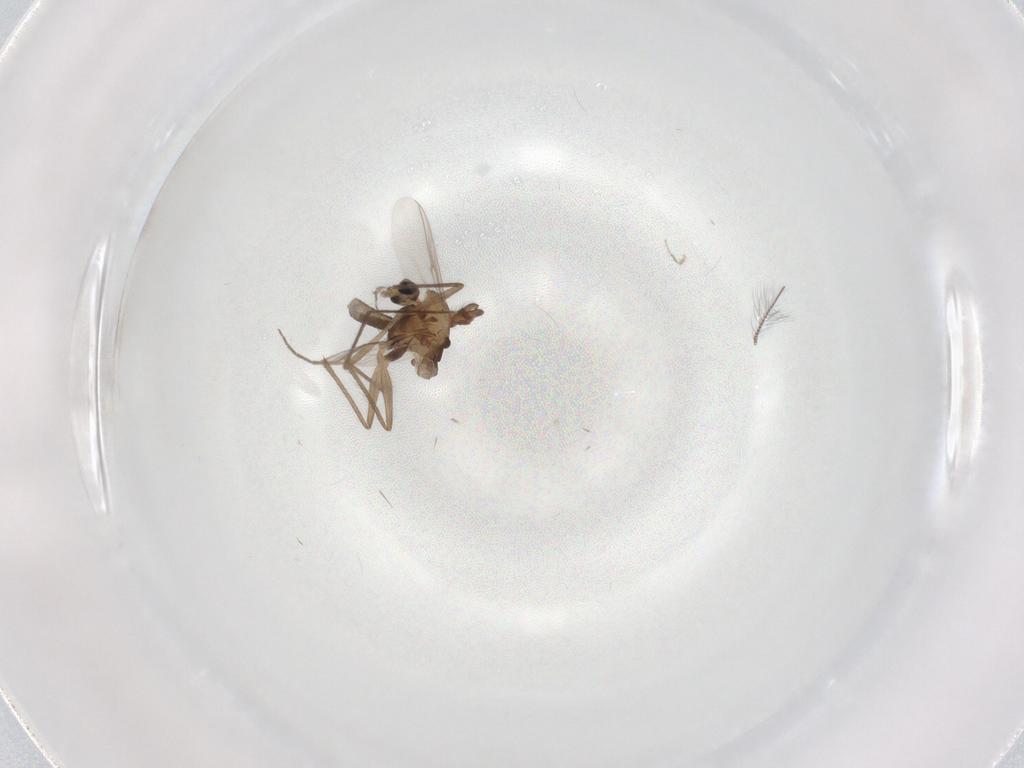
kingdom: Animalia
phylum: Arthropoda
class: Insecta
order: Diptera
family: Chironomidae
